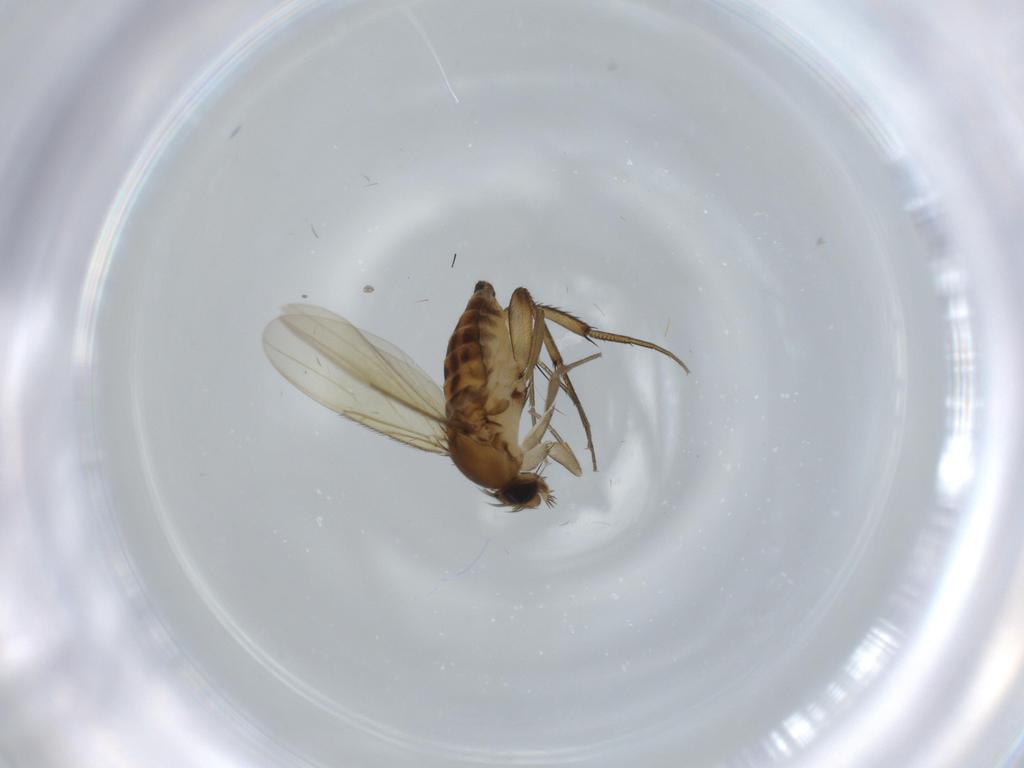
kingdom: Animalia
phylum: Arthropoda
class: Insecta
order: Diptera
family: Phoridae
